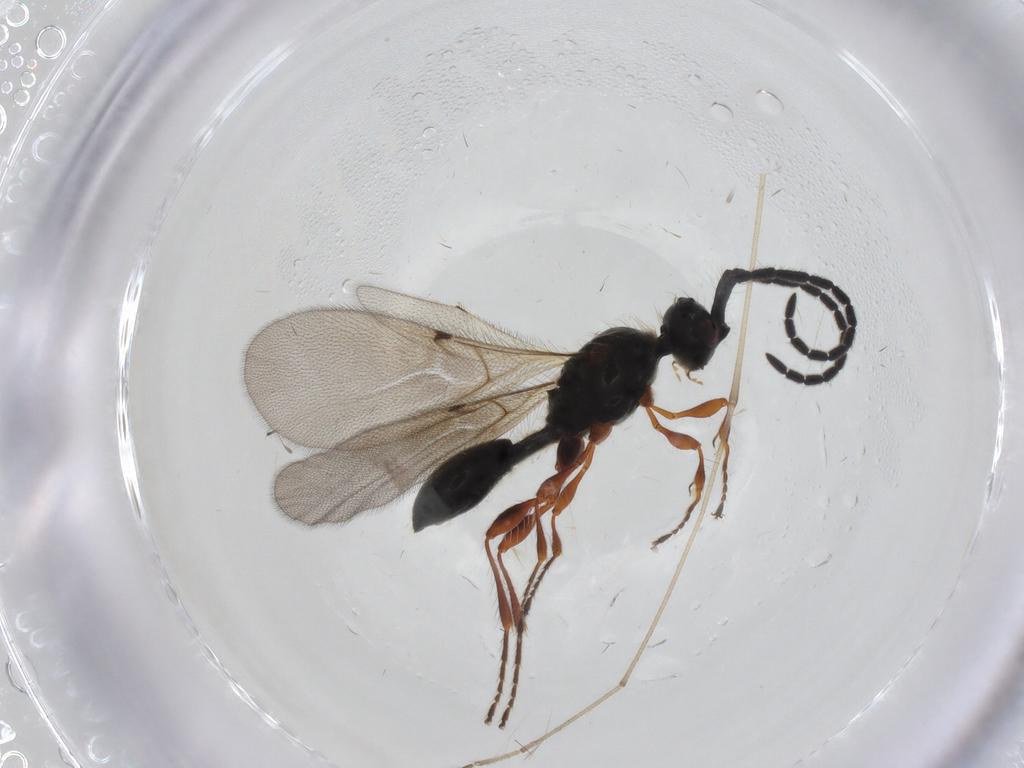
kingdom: Animalia
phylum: Arthropoda
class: Insecta
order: Hymenoptera
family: Diapriidae
